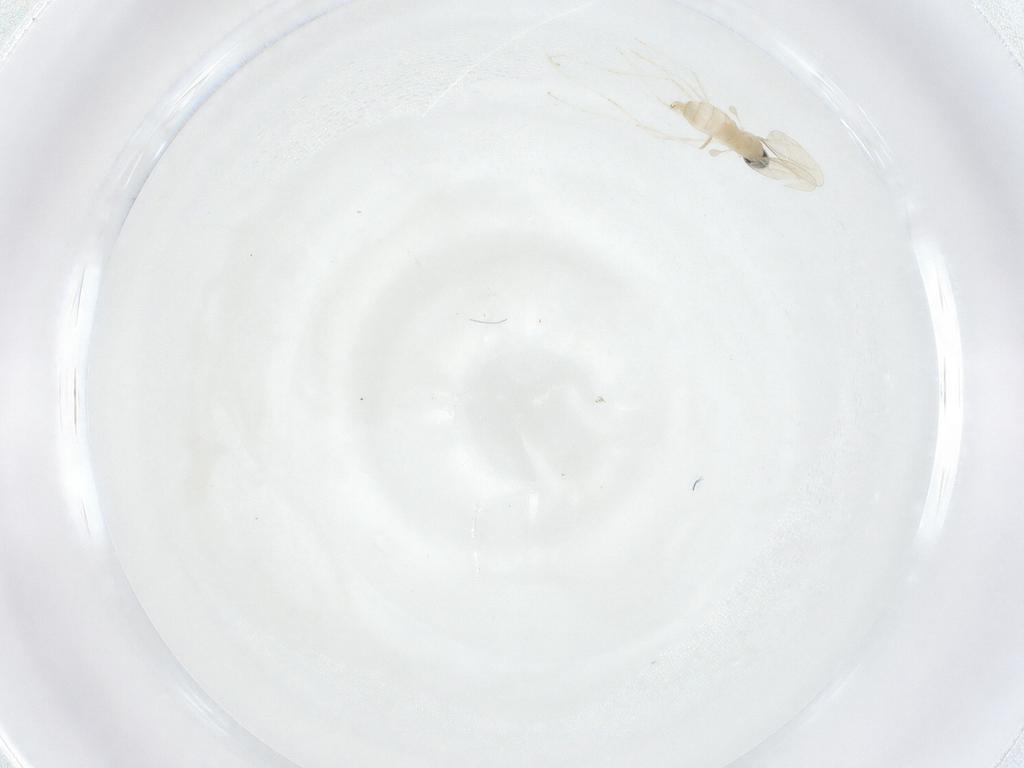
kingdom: Animalia
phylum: Arthropoda
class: Insecta
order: Diptera
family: Cecidomyiidae
